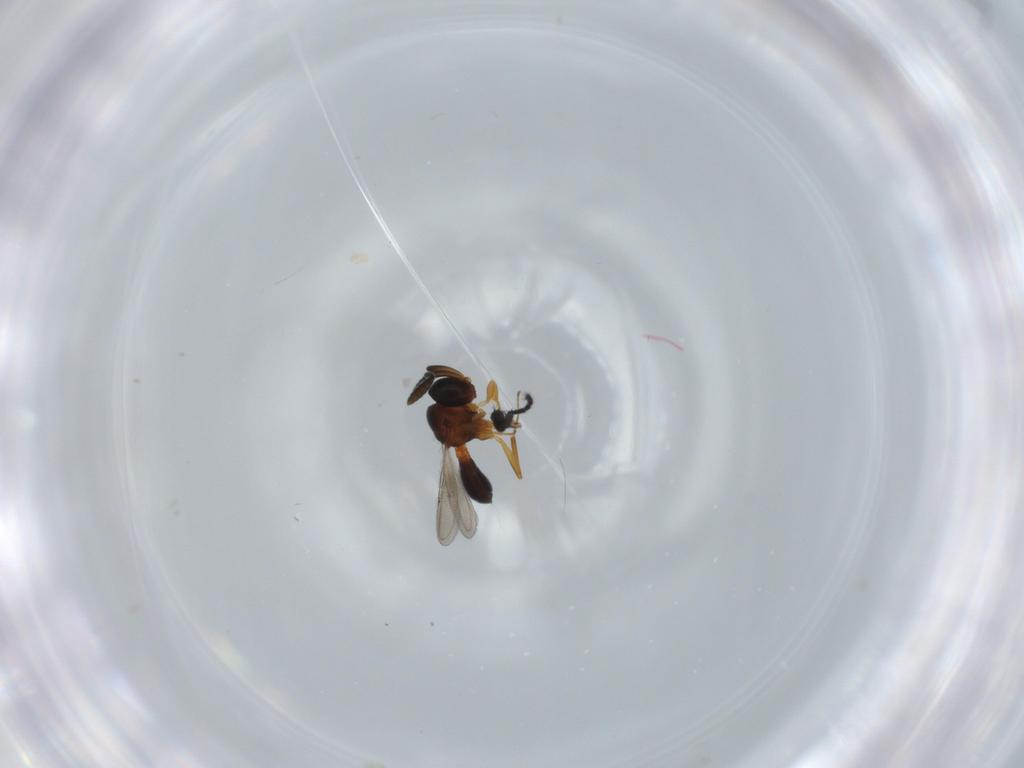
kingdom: Animalia
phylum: Arthropoda
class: Insecta
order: Hymenoptera
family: Scelionidae
